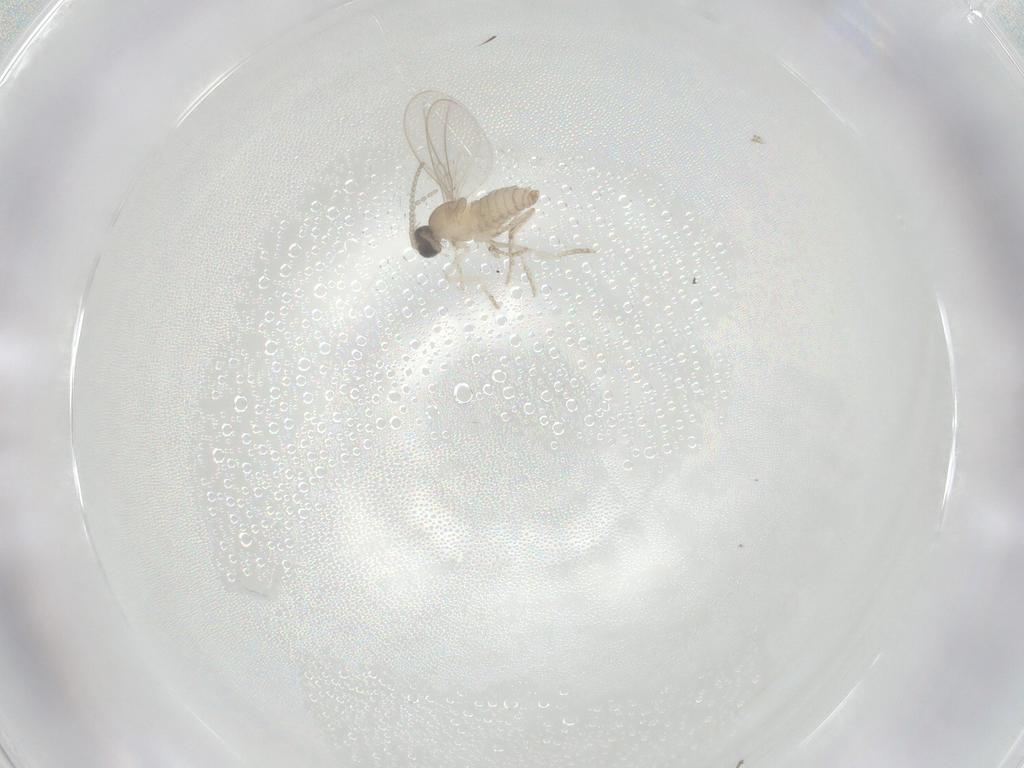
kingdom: Animalia
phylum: Arthropoda
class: Insecta
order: Diptera
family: Cecidomyiidae
